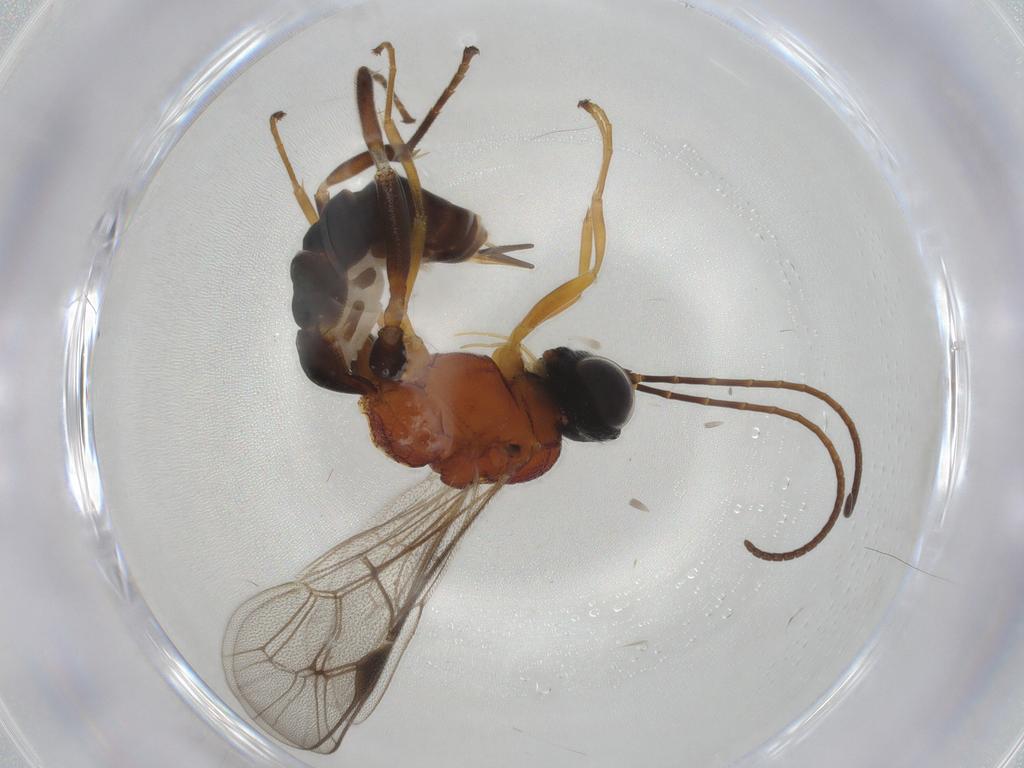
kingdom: Animalia
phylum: Arthropoda
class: Insecta
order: Hymenoptera
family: Ichneumonidae
